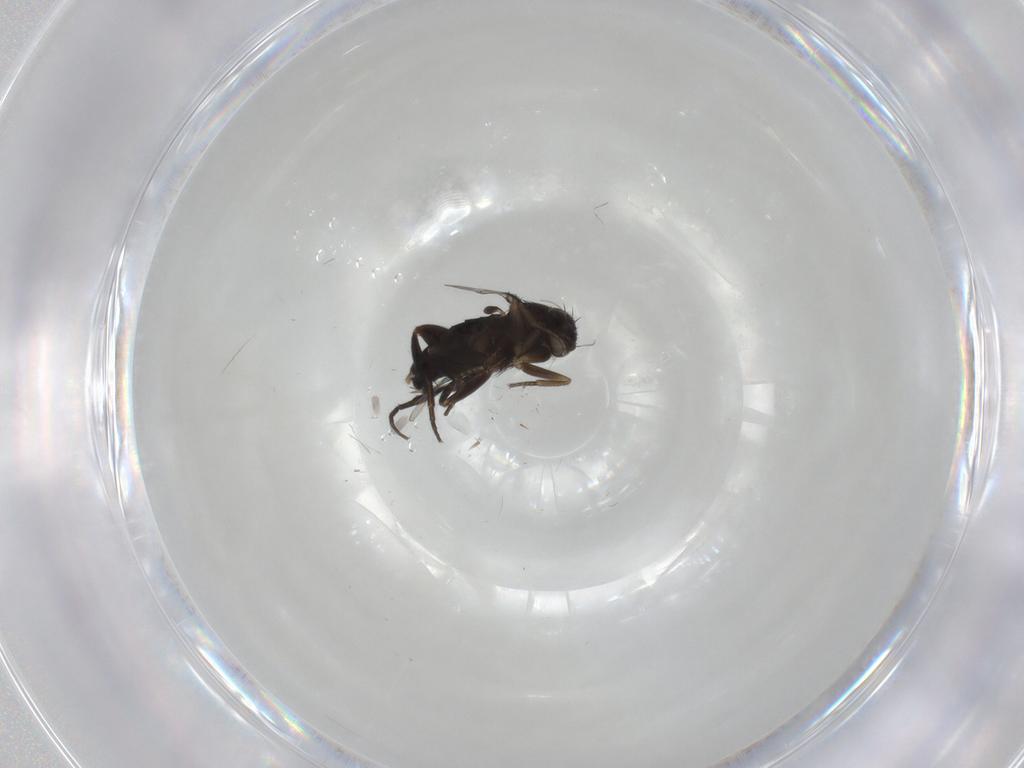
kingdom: Animalia
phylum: Arthropoda
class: Insecta
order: Diptera
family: Phoridae
